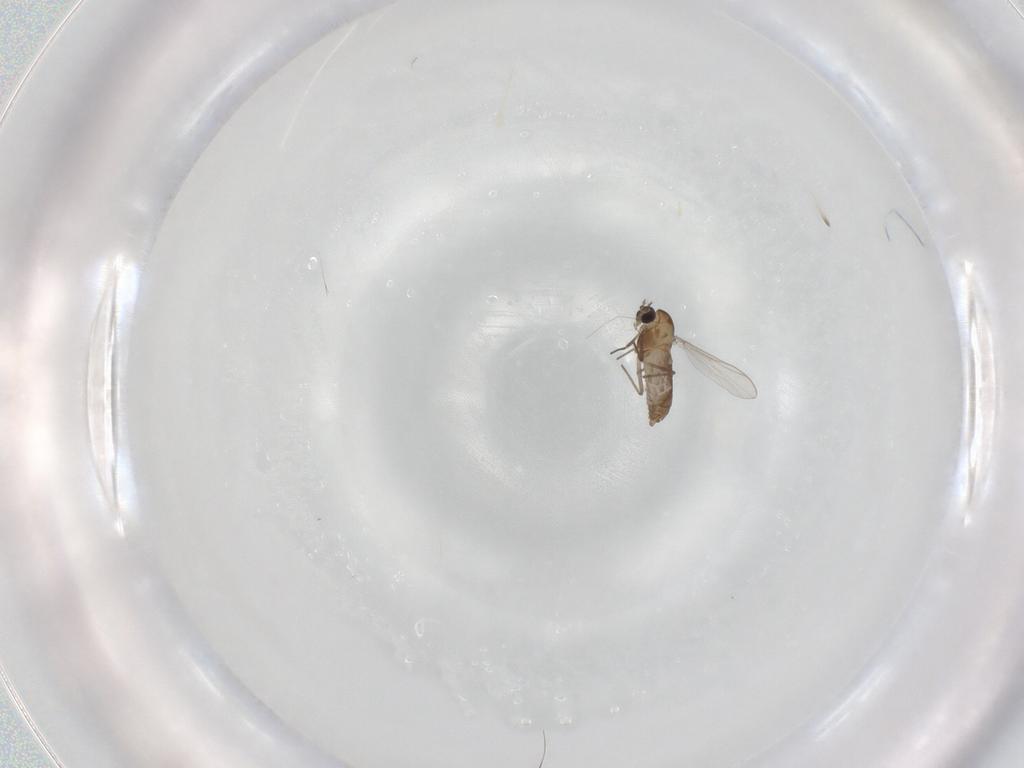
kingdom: Animalia
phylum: Arthropoda
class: Insecta
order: Diptera
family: Chironomidae
